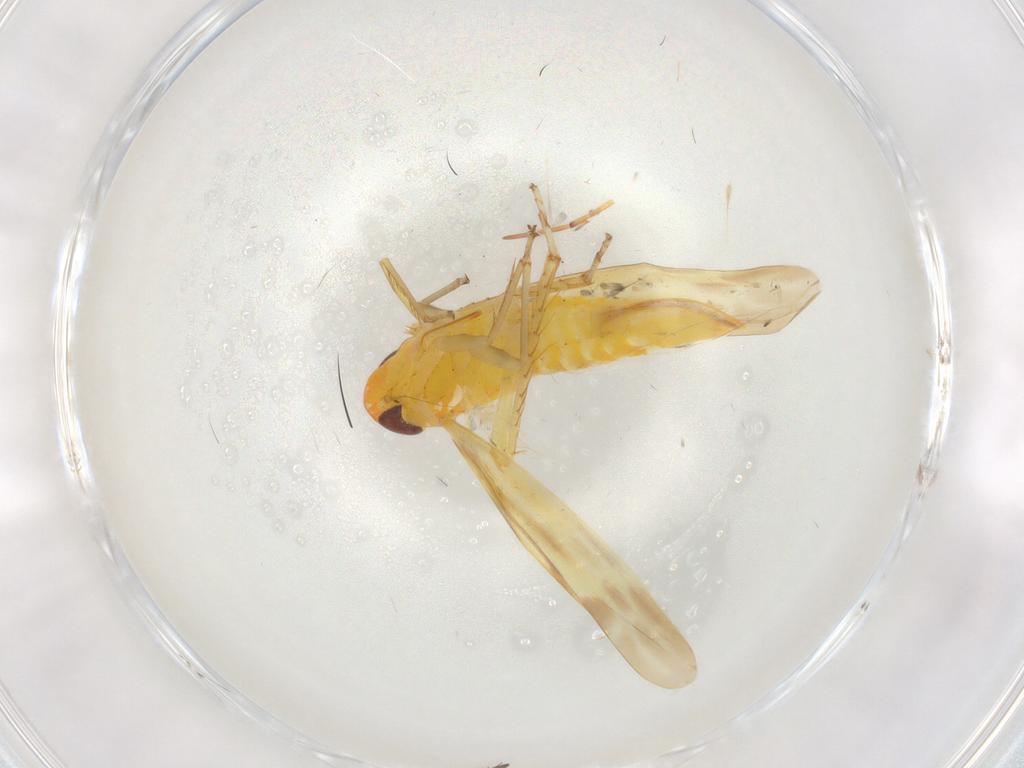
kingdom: Animalia
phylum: Arthropoda
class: Insecta
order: Hemiptera
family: Cicadellidae
